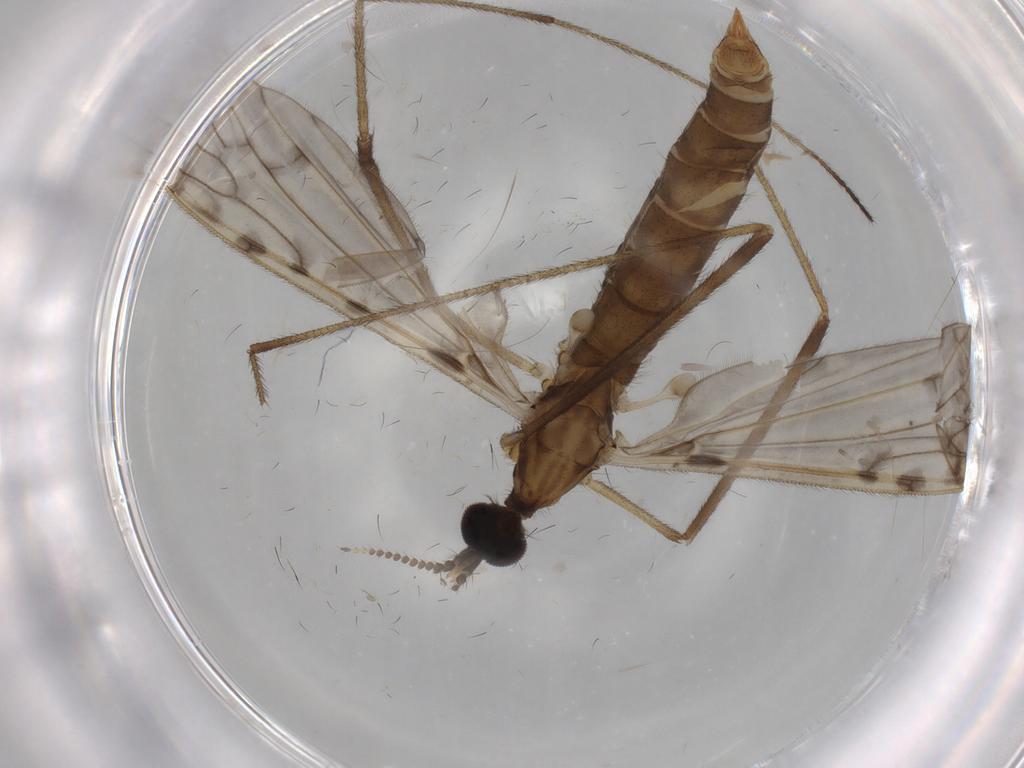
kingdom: Animalia
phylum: Arthropoda
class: Insecta
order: Diptera
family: Limoniidae
